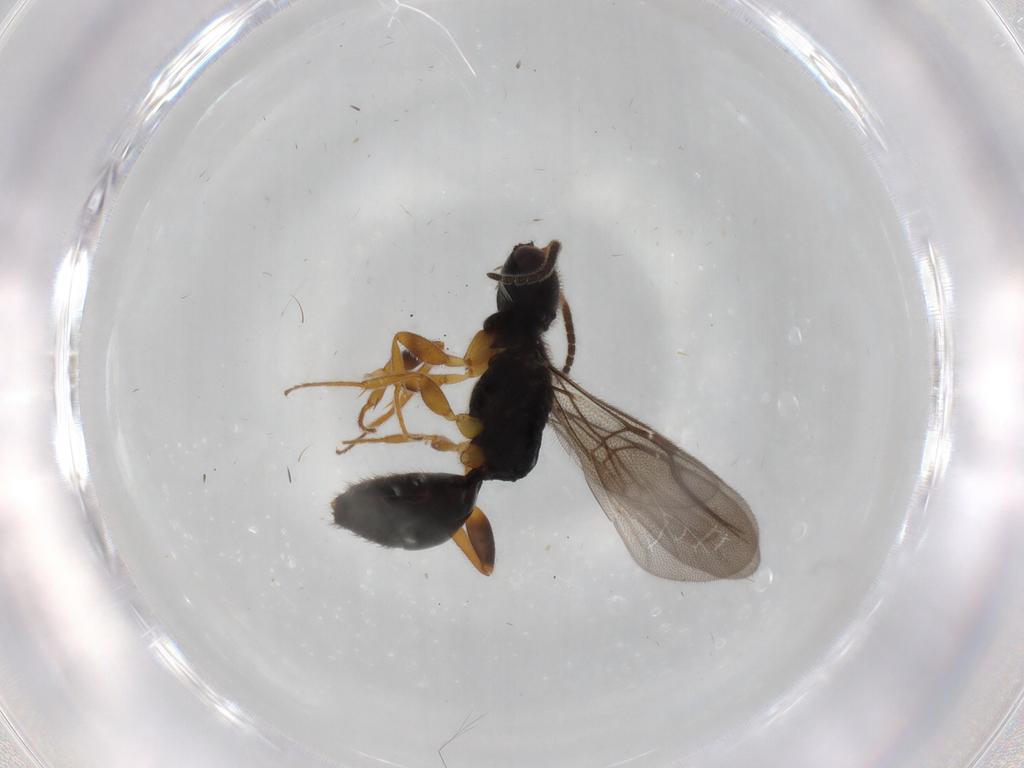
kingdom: Animalia
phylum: Arthropoda
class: Insecta
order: Hymenoptera
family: Bethylidae
